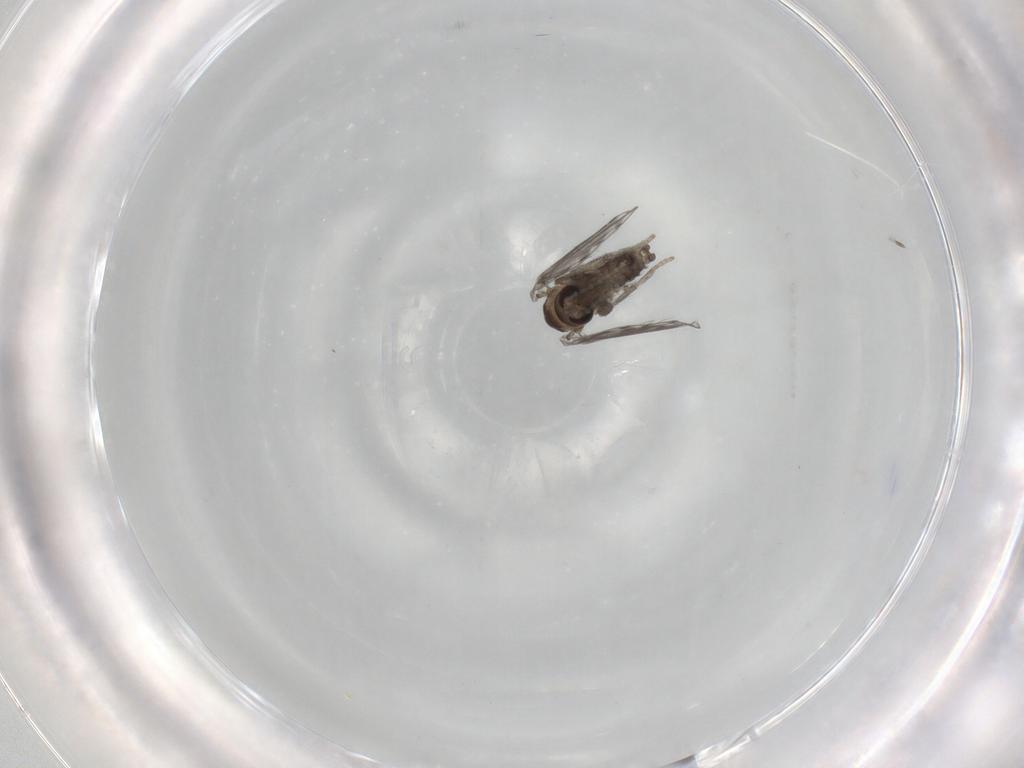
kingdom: Animalia
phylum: Arthropoda
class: Insecta
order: Diptera
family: Psychodidae
